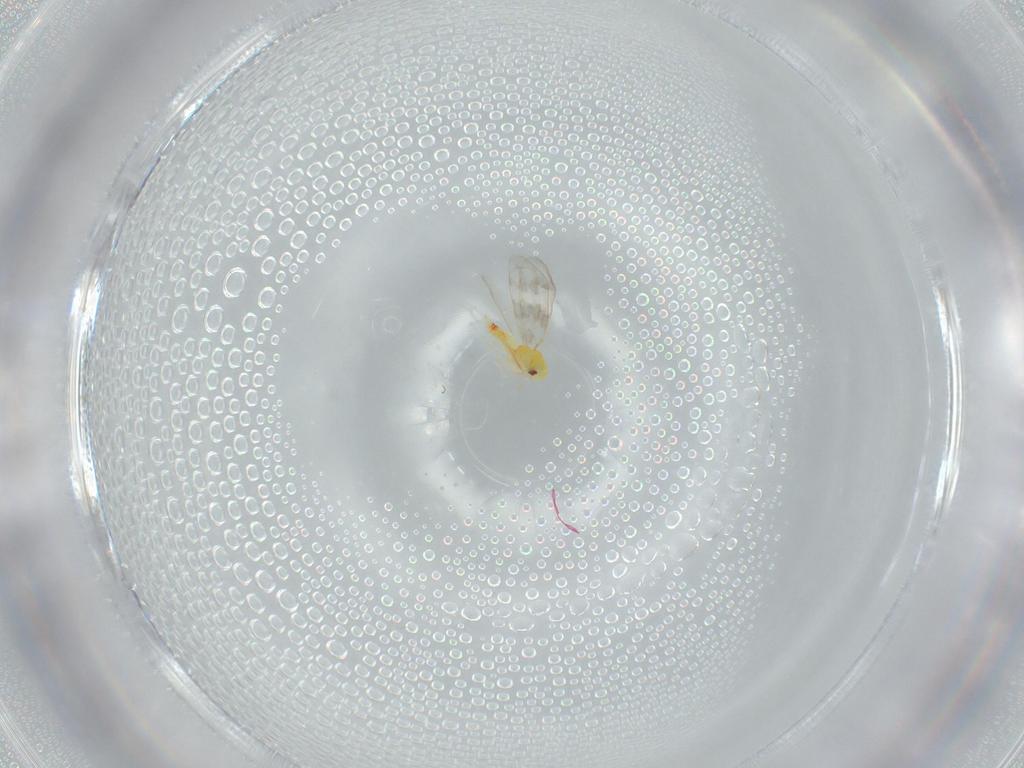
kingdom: Animalia
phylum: Arthropoda
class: Insecta
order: Hemiptera
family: Aleyrodidae
